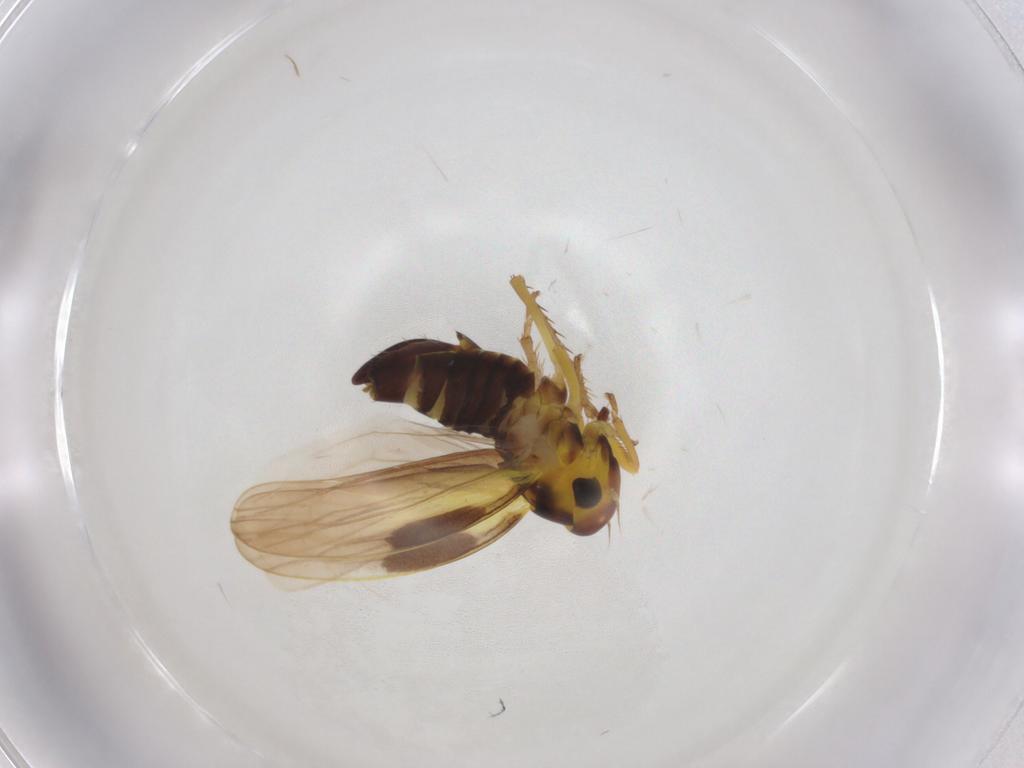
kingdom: Animalia
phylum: Arthropoda
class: Insecta
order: Hemiptera
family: Cicadellidae
